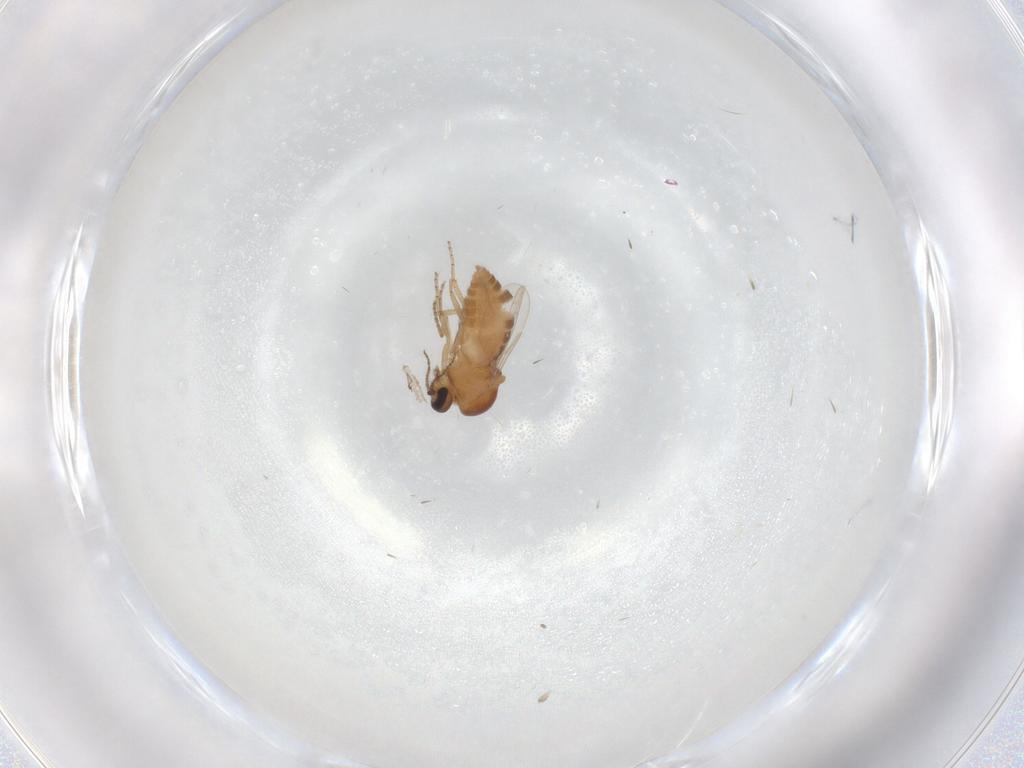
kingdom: Animalia
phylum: Arthropoda
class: Insecta
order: Diptera
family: Ceratopogonidae
